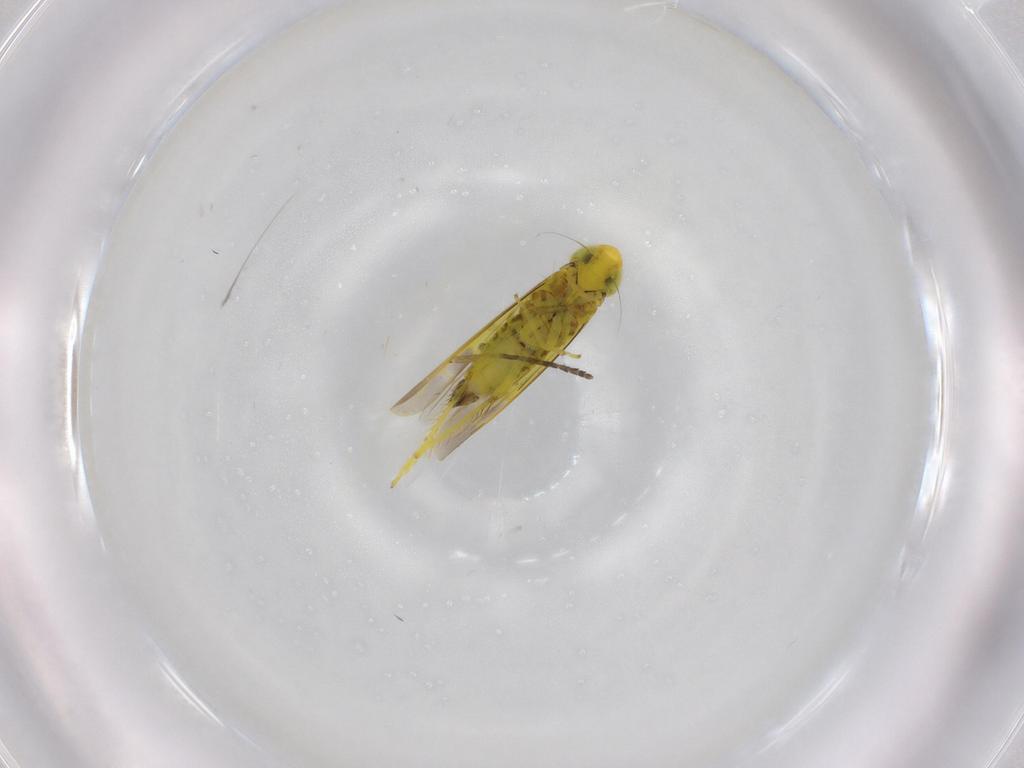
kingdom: Animalia
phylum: Arthropoda
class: Insecta
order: Hemiptera
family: Cicadellidae
